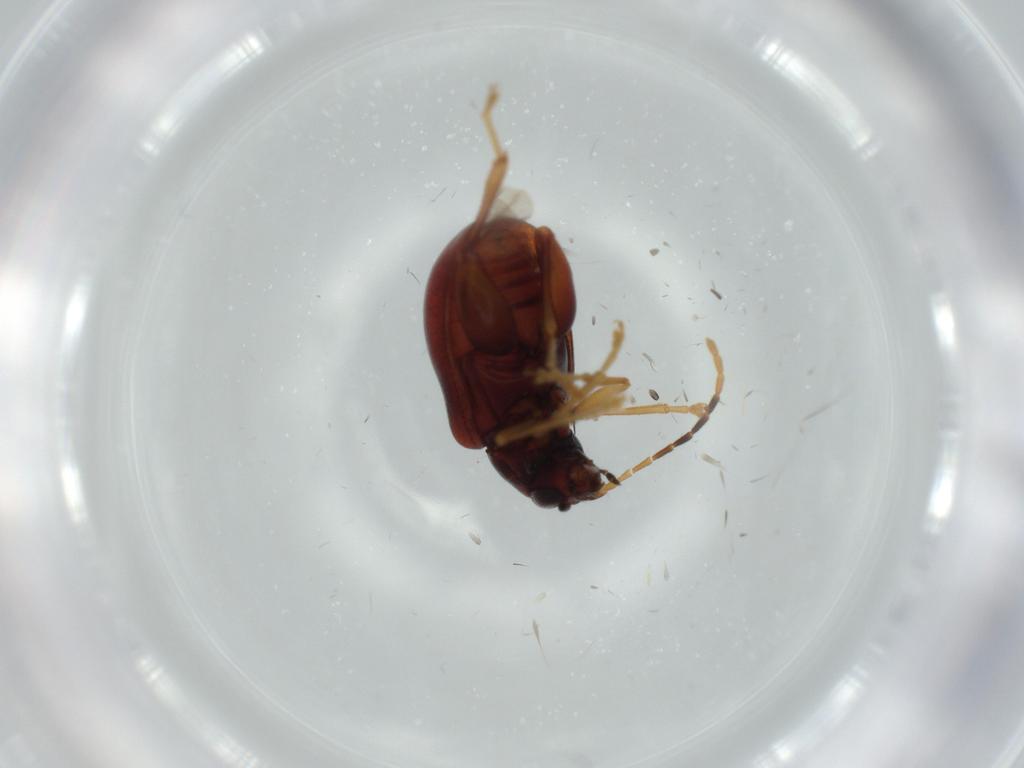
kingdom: Animalia
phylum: Arthropoda
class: Insecta
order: Coleoptera
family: Chrysomelidae
